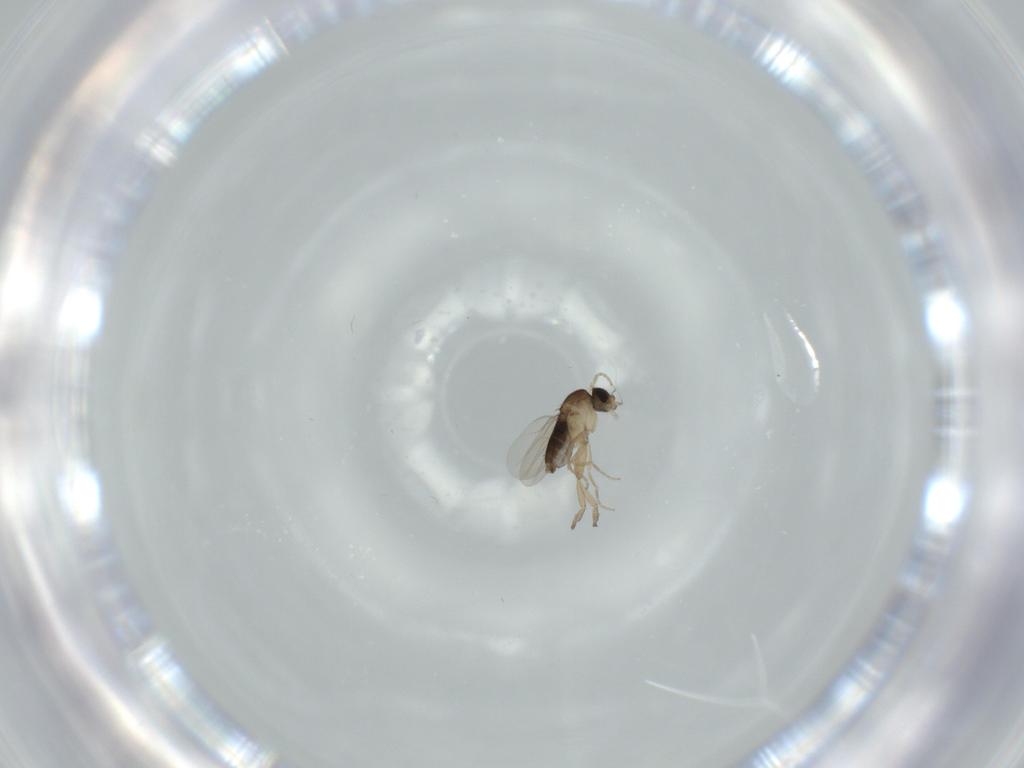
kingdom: Animalia
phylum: Arthropoda
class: Insecta
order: Diptera
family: Phoridae
